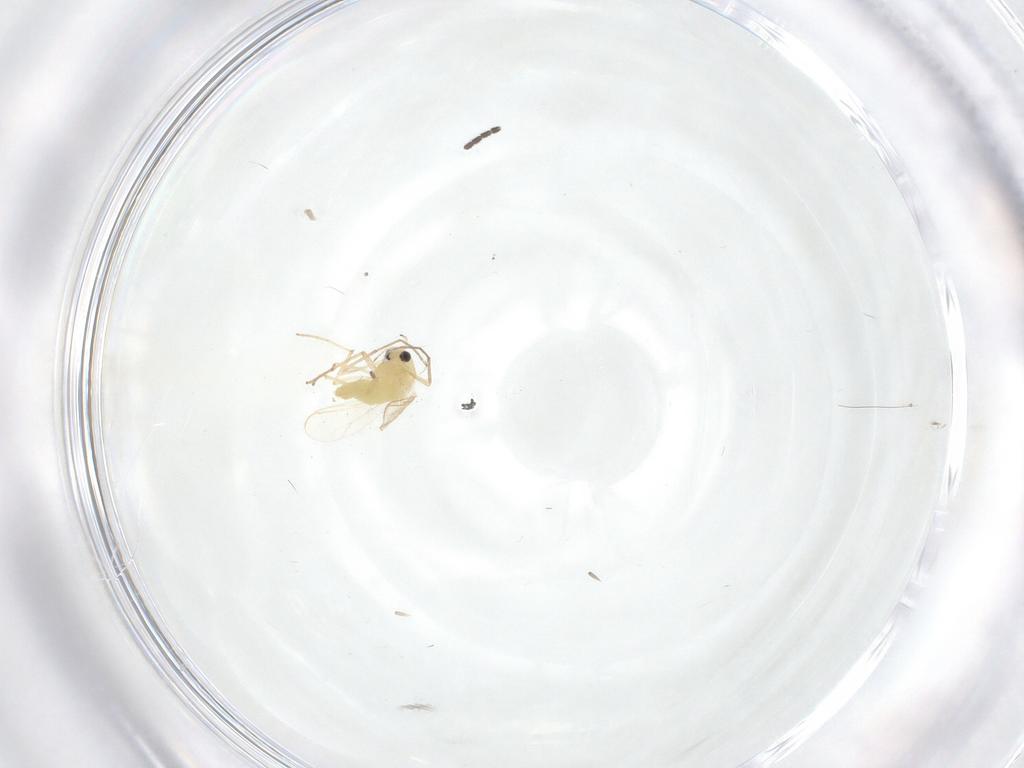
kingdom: Animalia
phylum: Arthropoda
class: Insecta
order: Diptera
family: Chironomidae
